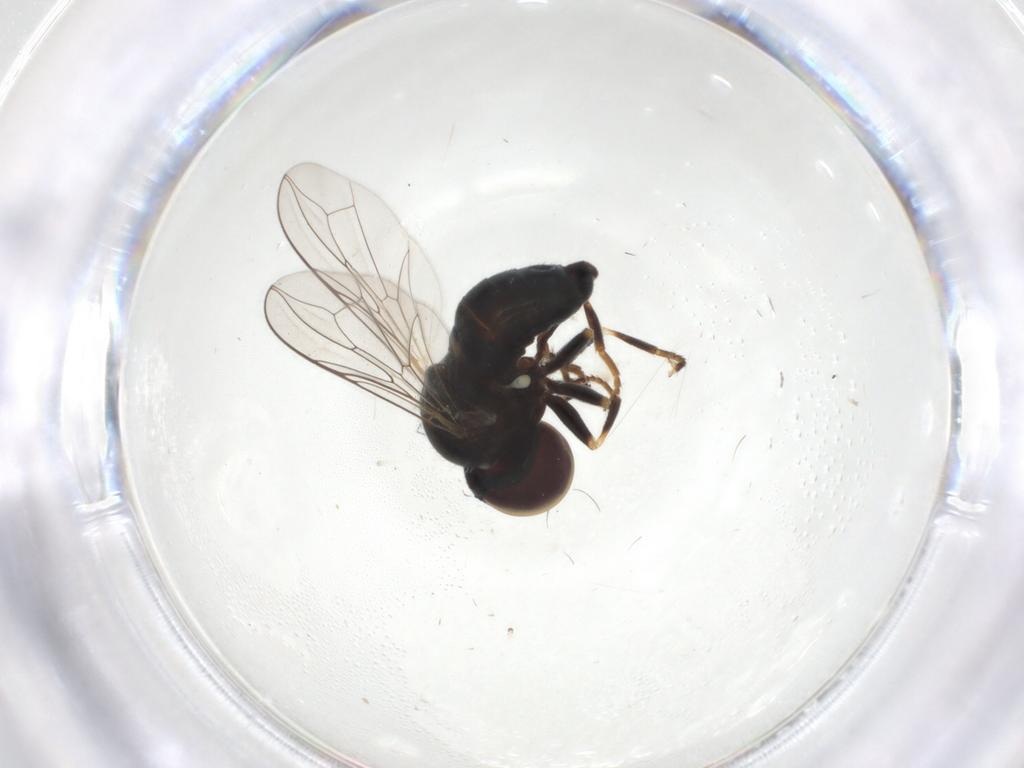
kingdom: Animalia
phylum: Arthropoda
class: Insecta
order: Diptera
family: Pipunculidae
